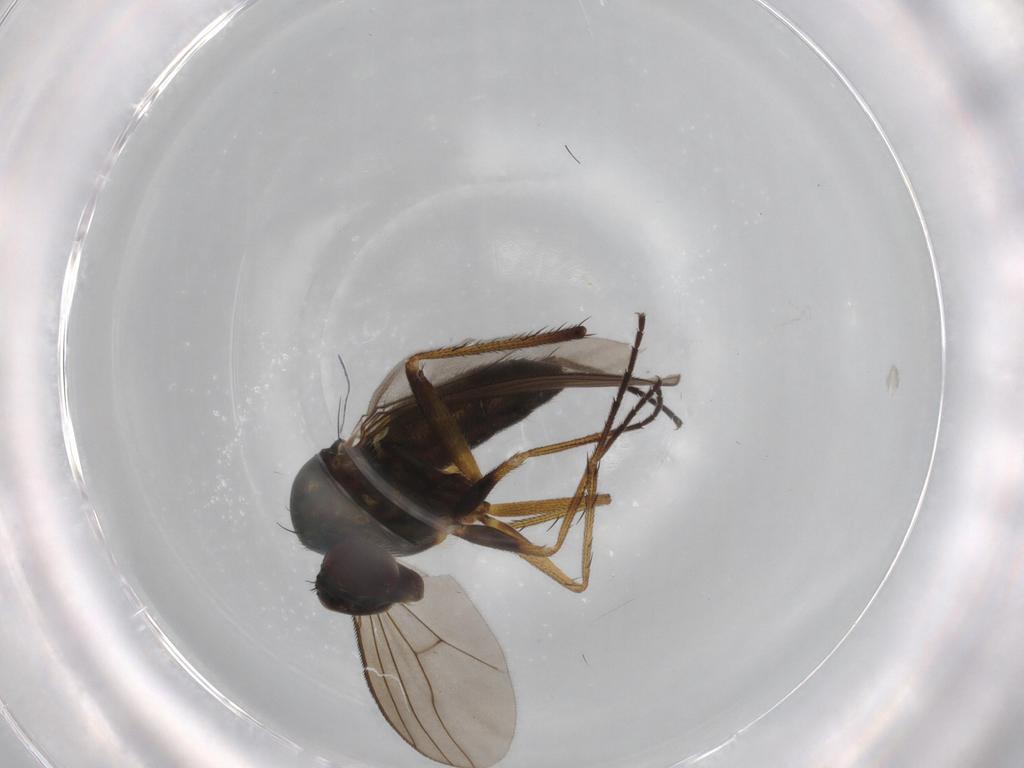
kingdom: Animalia
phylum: Arthropoda
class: Insecta
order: Diptera
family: Dolichopodidae
